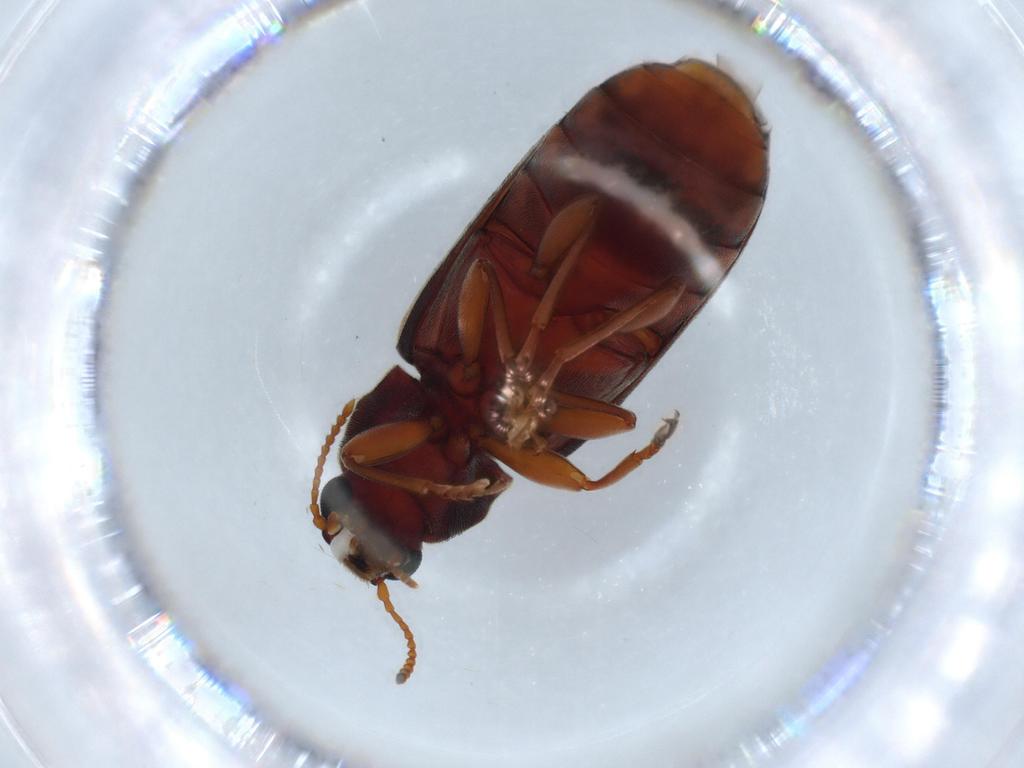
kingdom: Animalia
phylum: Arthropoda
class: Insecta
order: Coleoptera
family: Mycteridae
